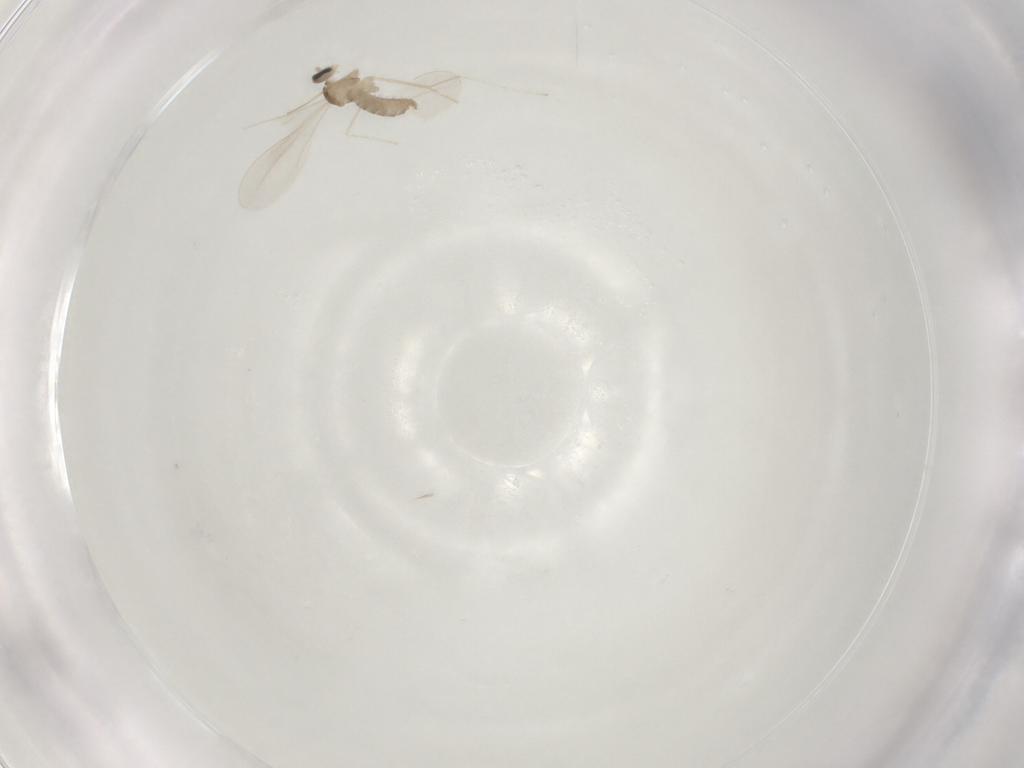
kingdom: Animalia
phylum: Arthropoda
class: Insecta
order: Diptera
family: Cecidomyiidae
